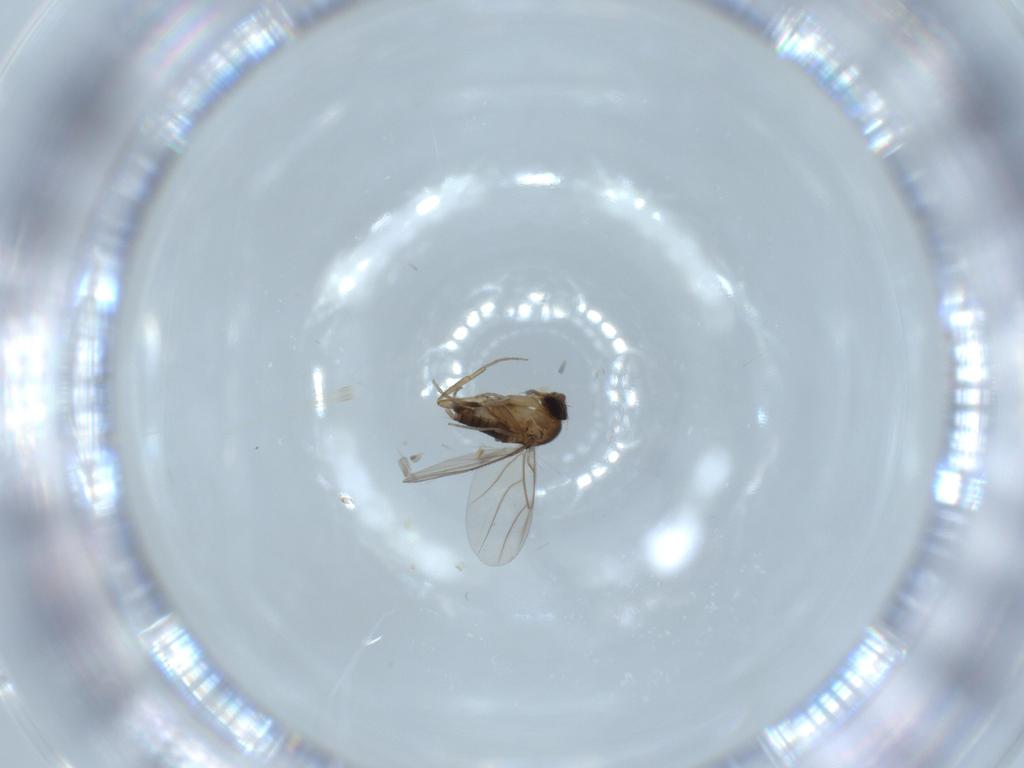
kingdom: Animalia
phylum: Arthropoda
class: Insecta
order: Diptera
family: Phoridae
